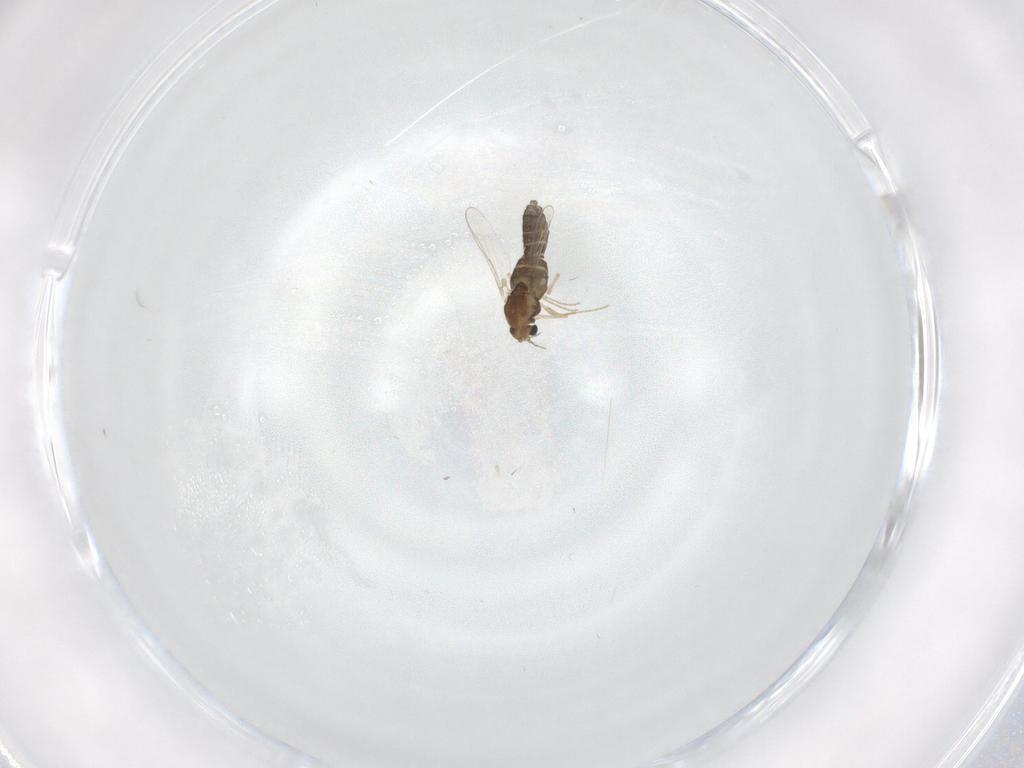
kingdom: Animalia
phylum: Arthropoda
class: Insecta
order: Diptera
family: Chironomidae
